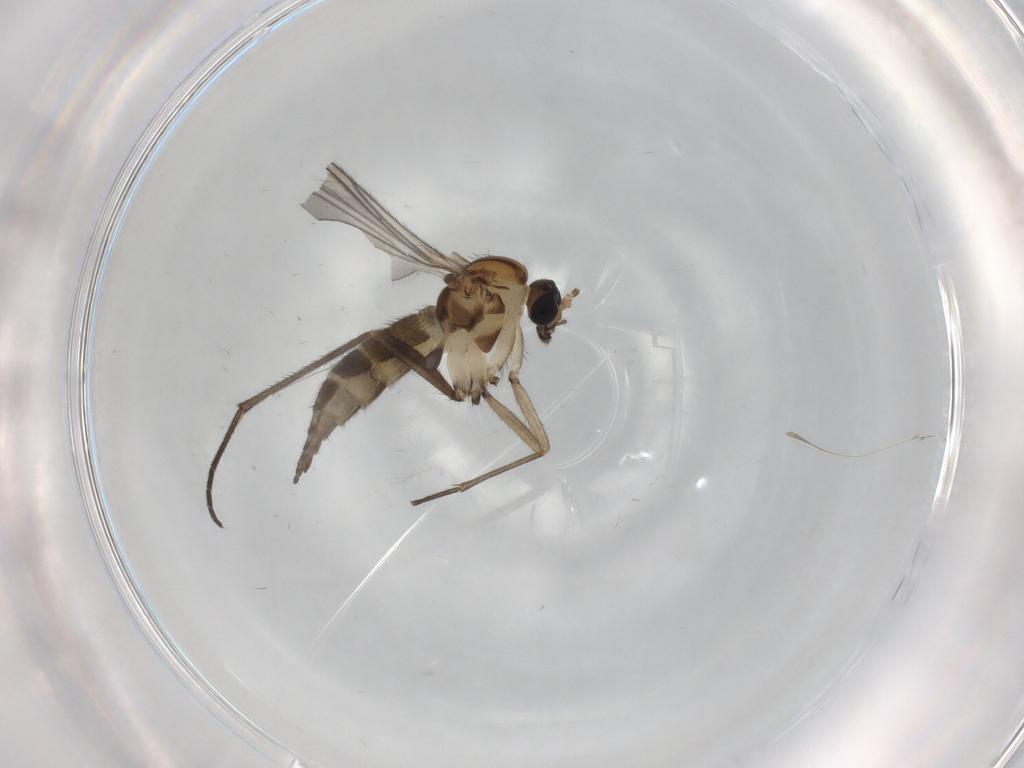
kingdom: Animalia
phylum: Arthropoda
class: Insecta
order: Diptera
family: Sciaridae
